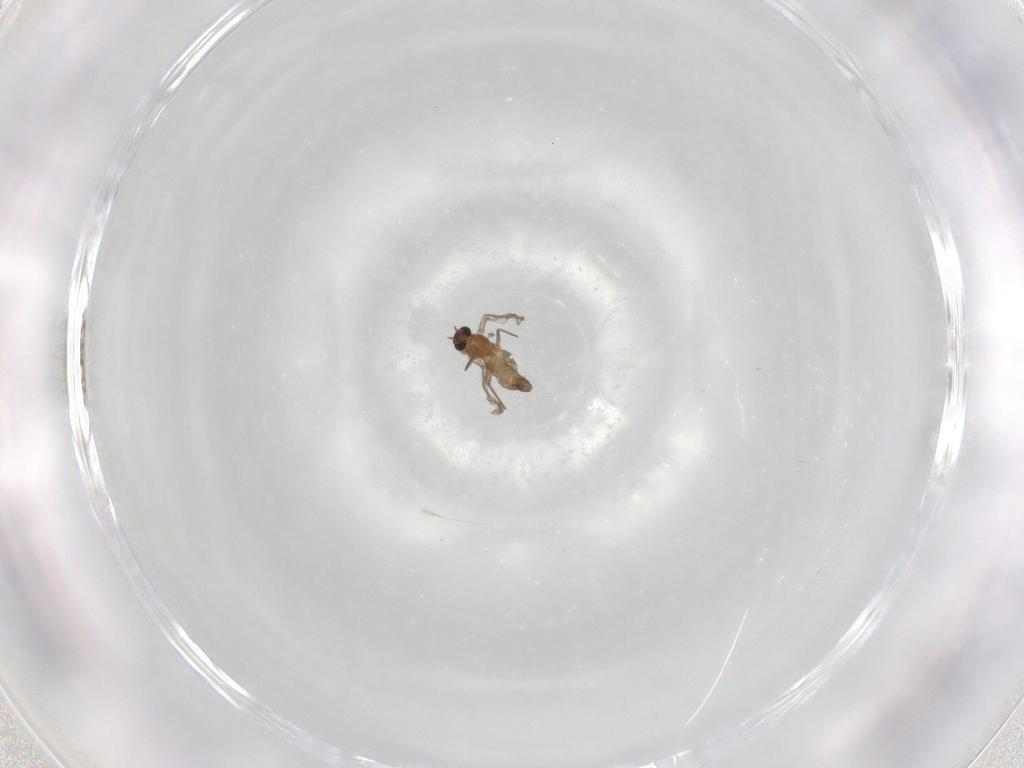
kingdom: Animalia
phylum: Arthropoda
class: Insecta
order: Diptera
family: Chironomidae
